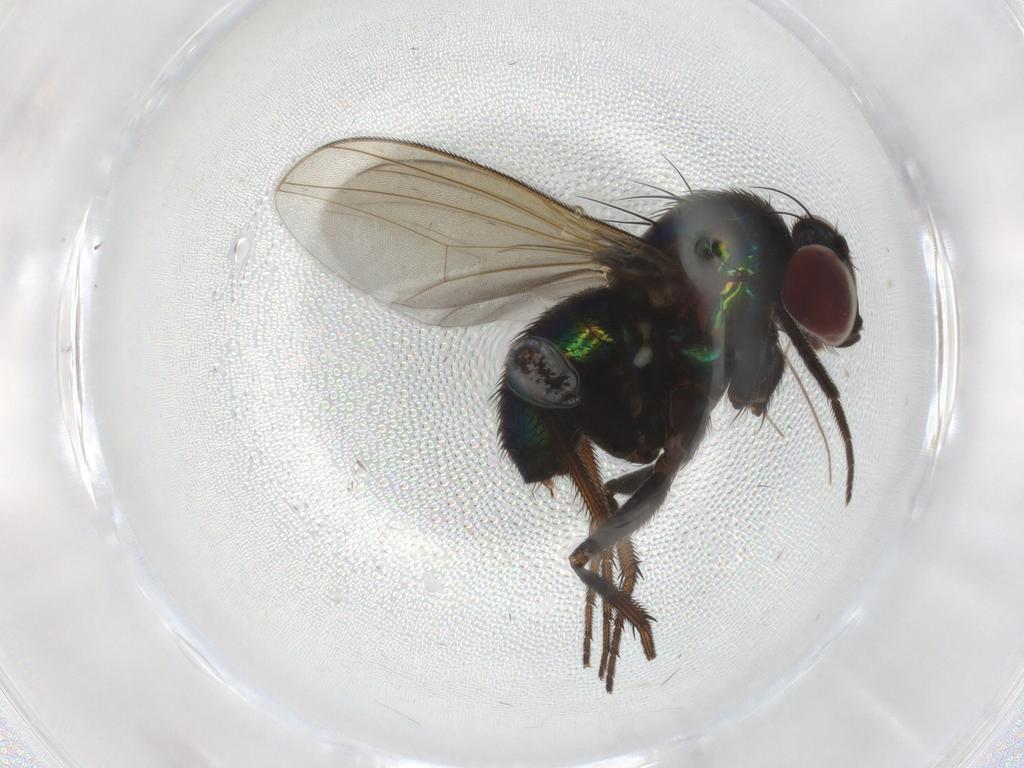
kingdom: Animalia
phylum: Arthropoda
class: Insecta
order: Diptera
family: Dolichopodidae
